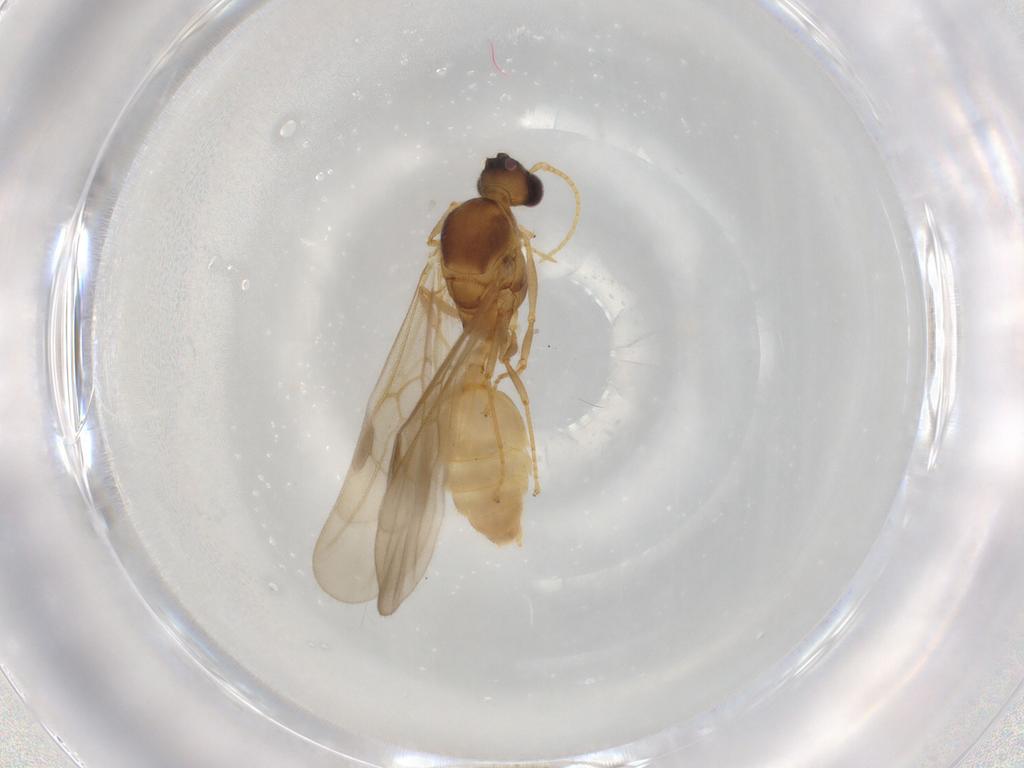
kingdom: Animalia
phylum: Arthropoda
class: Insecta
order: Hymenoptera
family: Formicidae
